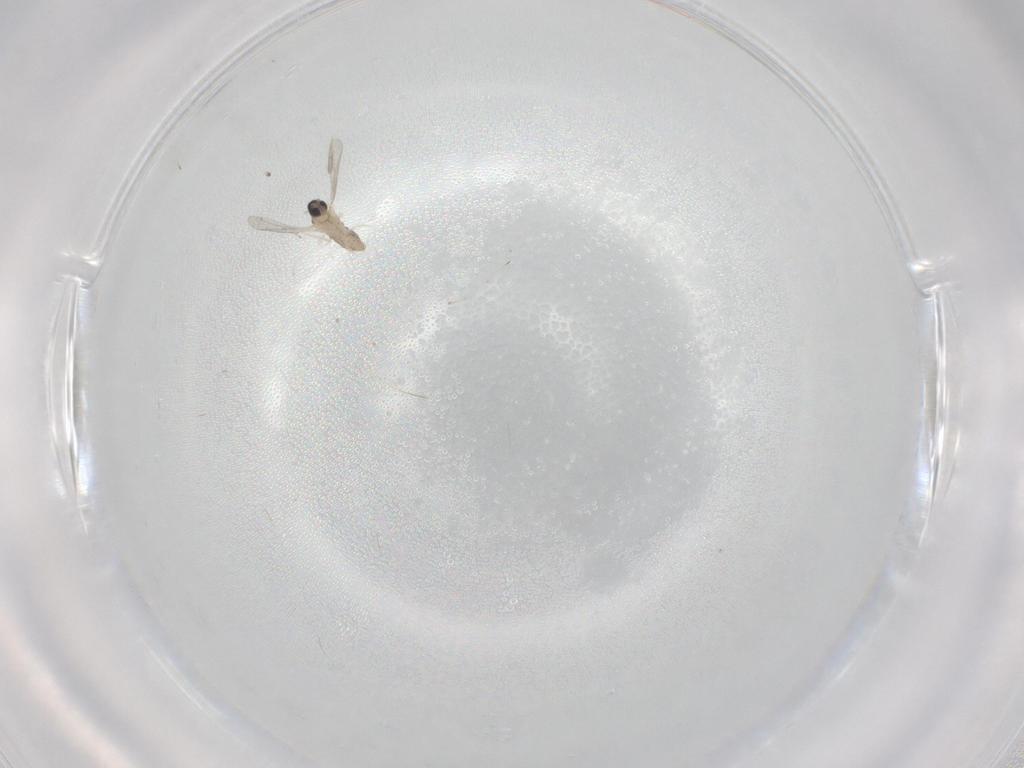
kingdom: Animalia
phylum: Arthropoda
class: Insecta
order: Diptera
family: Cecidomyiidae
